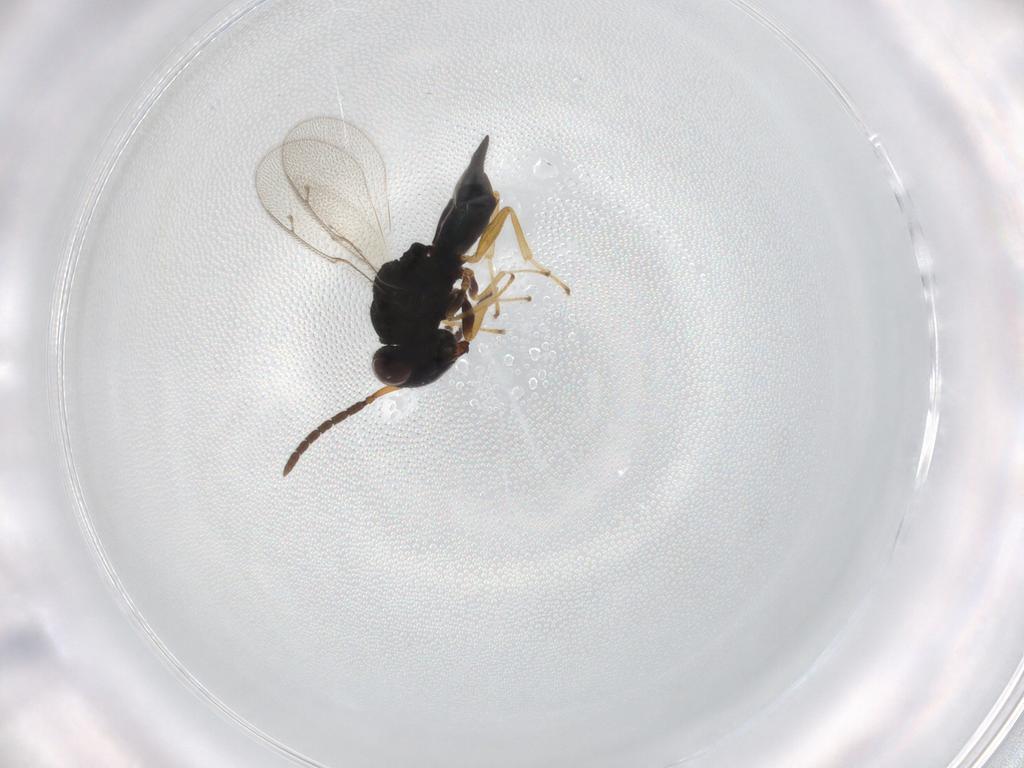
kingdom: Animalia
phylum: Arthropoda
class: Insecta
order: Hymenoptera
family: Pteromalidae
